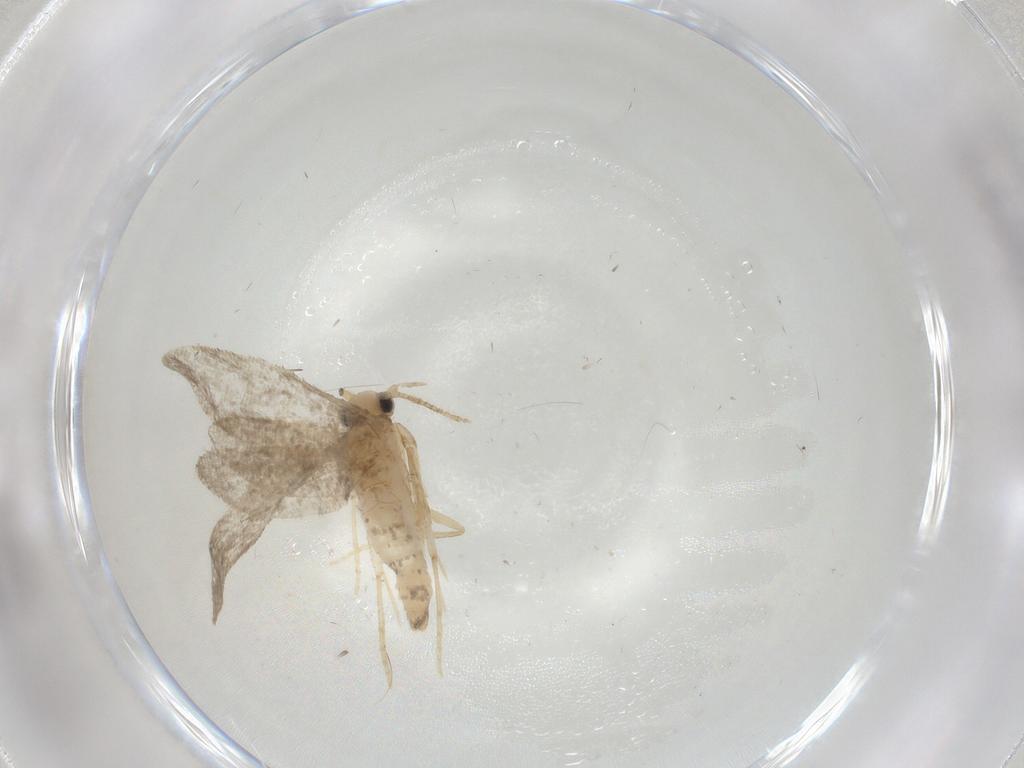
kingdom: Animalia
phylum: Arthropoda
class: Insecta
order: Lepidoptera
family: Psychidae
